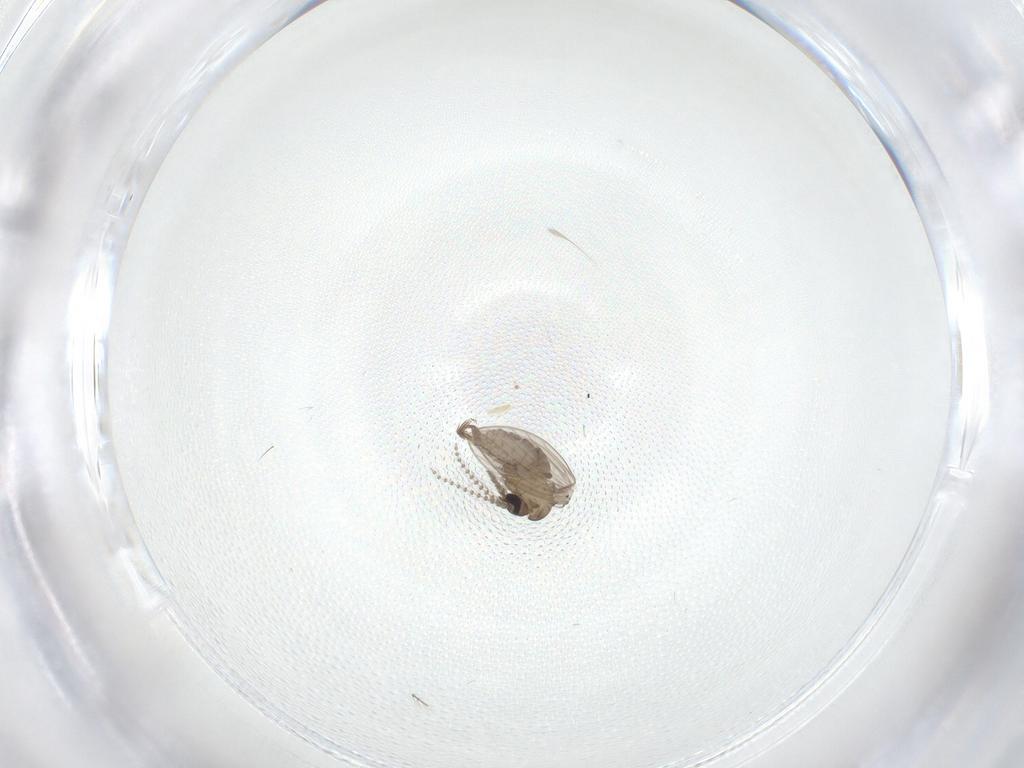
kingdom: Animalia
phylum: Arthropoda
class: Insecta
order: Diptera
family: Psychodidae
